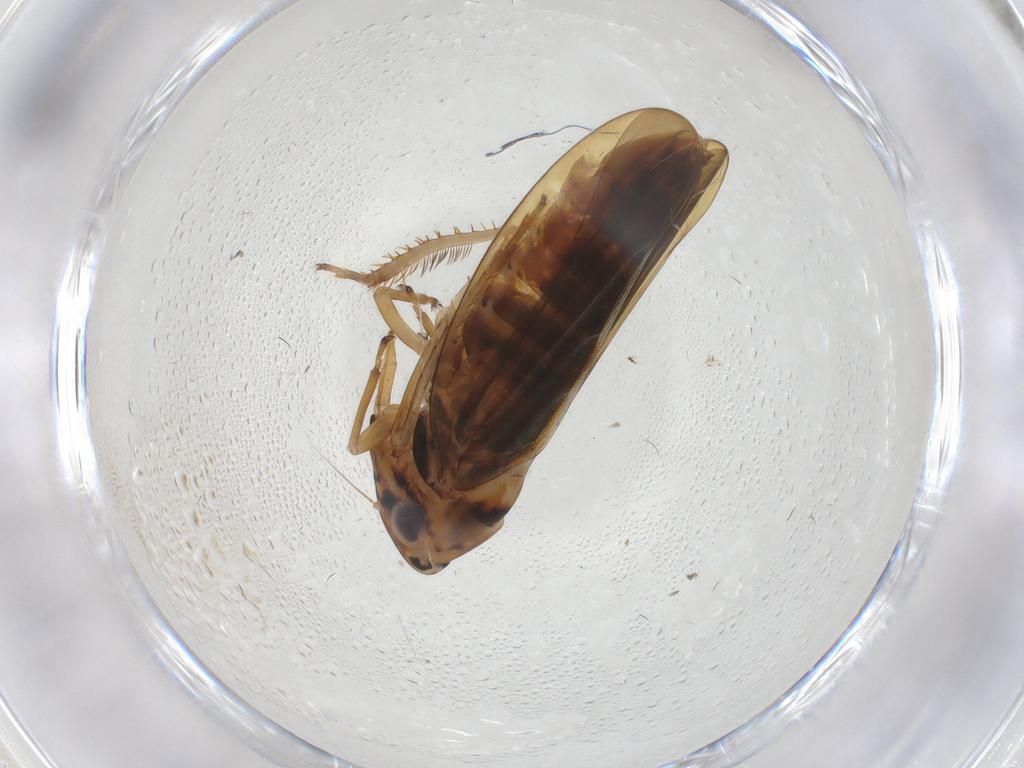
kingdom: Animalia
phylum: Arthropoda
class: Insecta
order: Hemiptera
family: Cicadellidae
